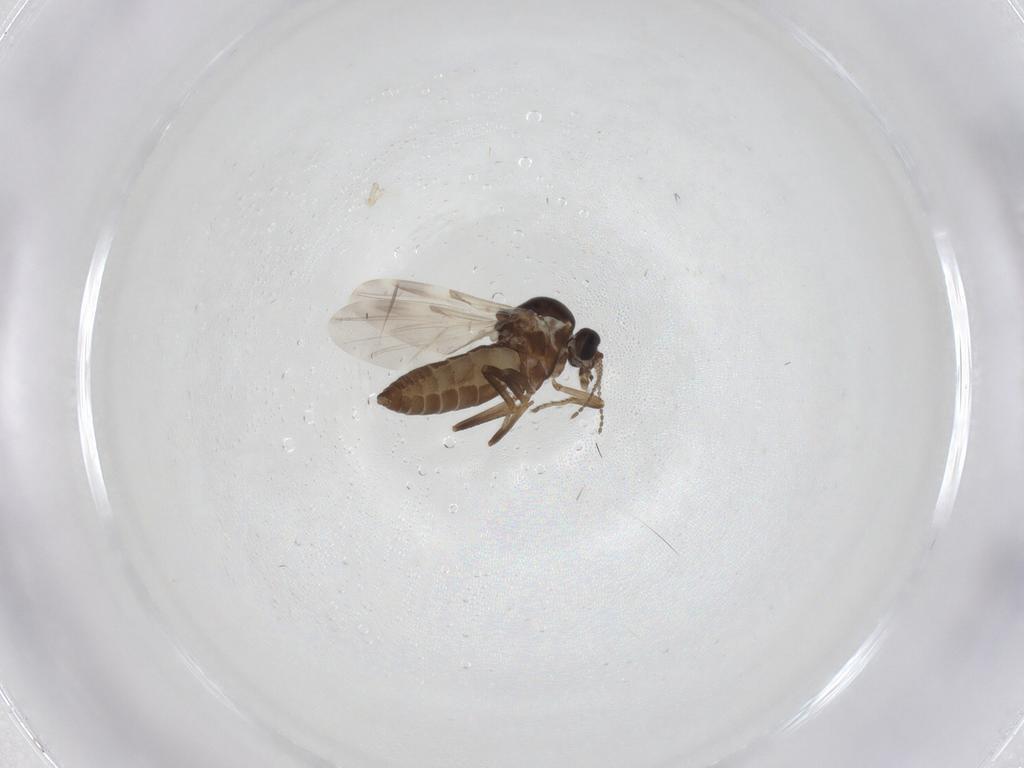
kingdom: Animalia
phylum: Arthropoda
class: Insecta
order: Diptera
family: Ceratopogonidae
